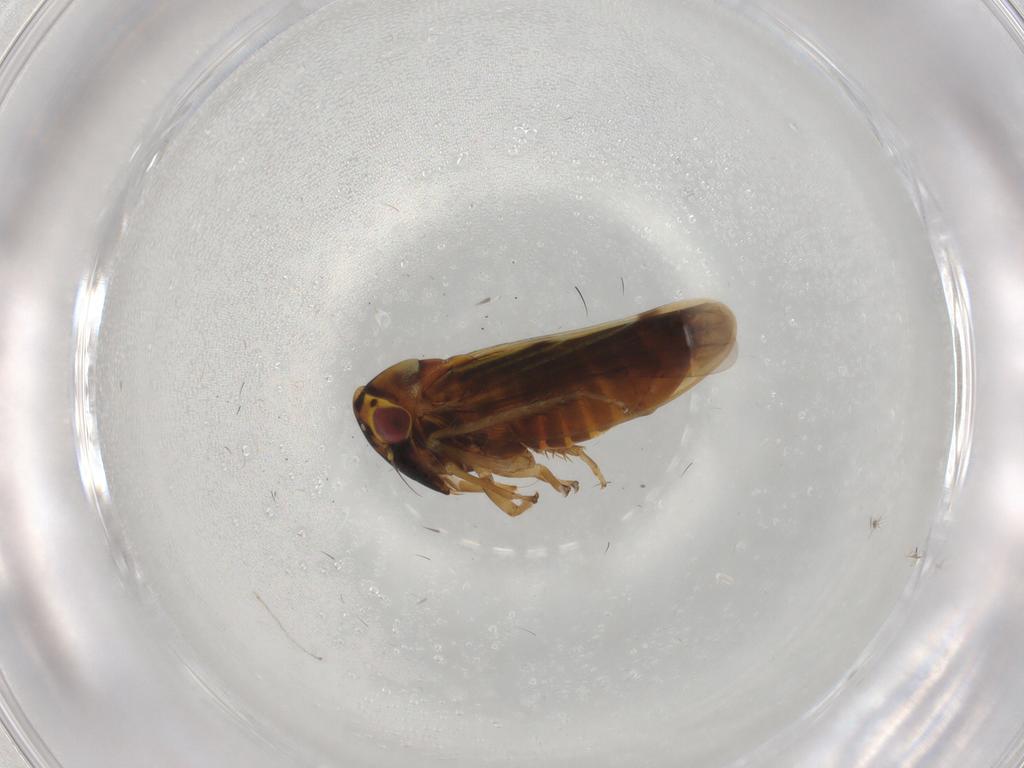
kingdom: Animalia
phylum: Arthropoda
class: Insecta
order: Hemiptera
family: Cicadellidae
